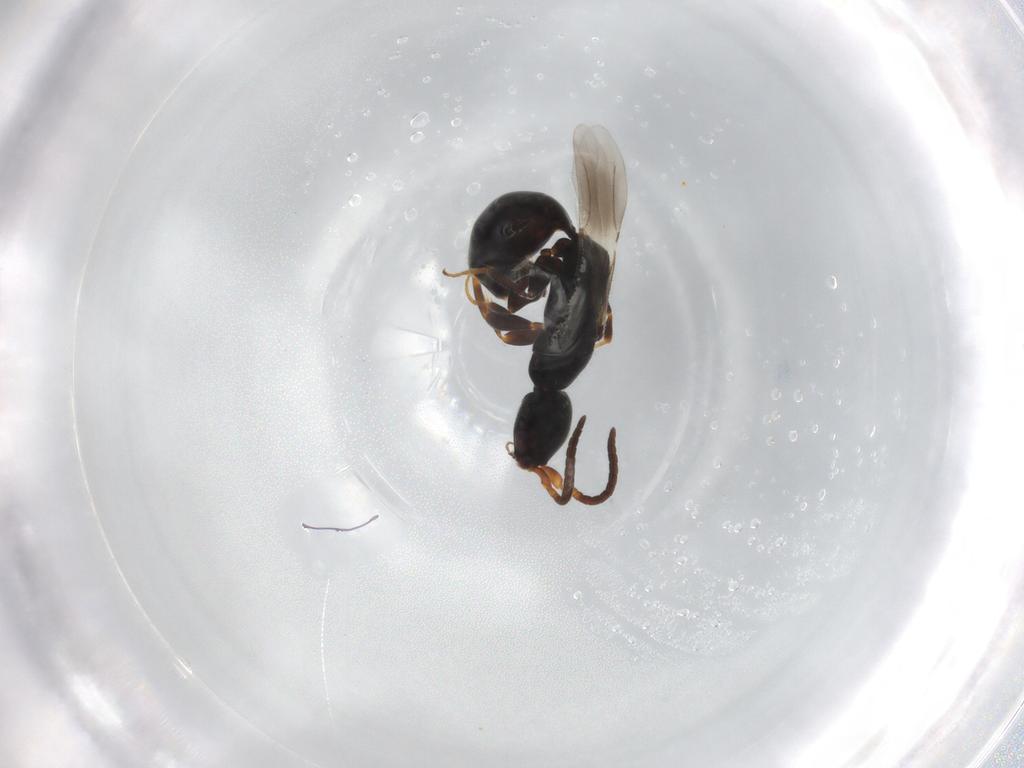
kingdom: Animalia
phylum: Arthropoda
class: Insecta
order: Hymenoptera
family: Bethylidae
